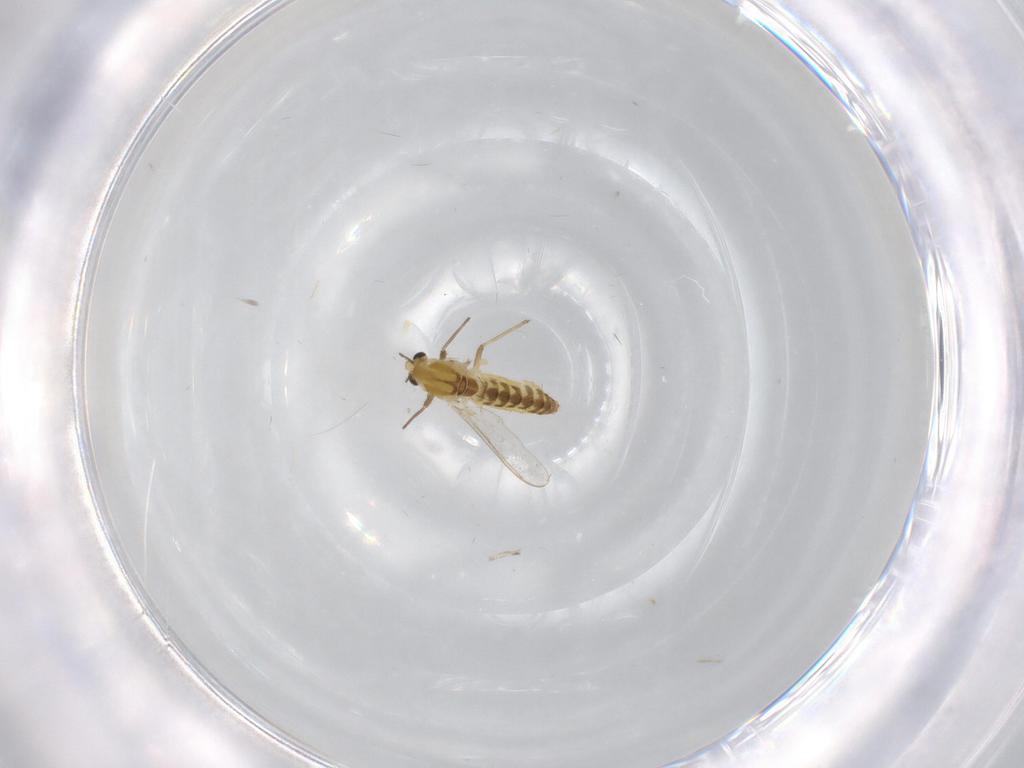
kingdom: Animalia
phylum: Arthropoda
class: Insecta
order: Diptera
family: Chironomidae
